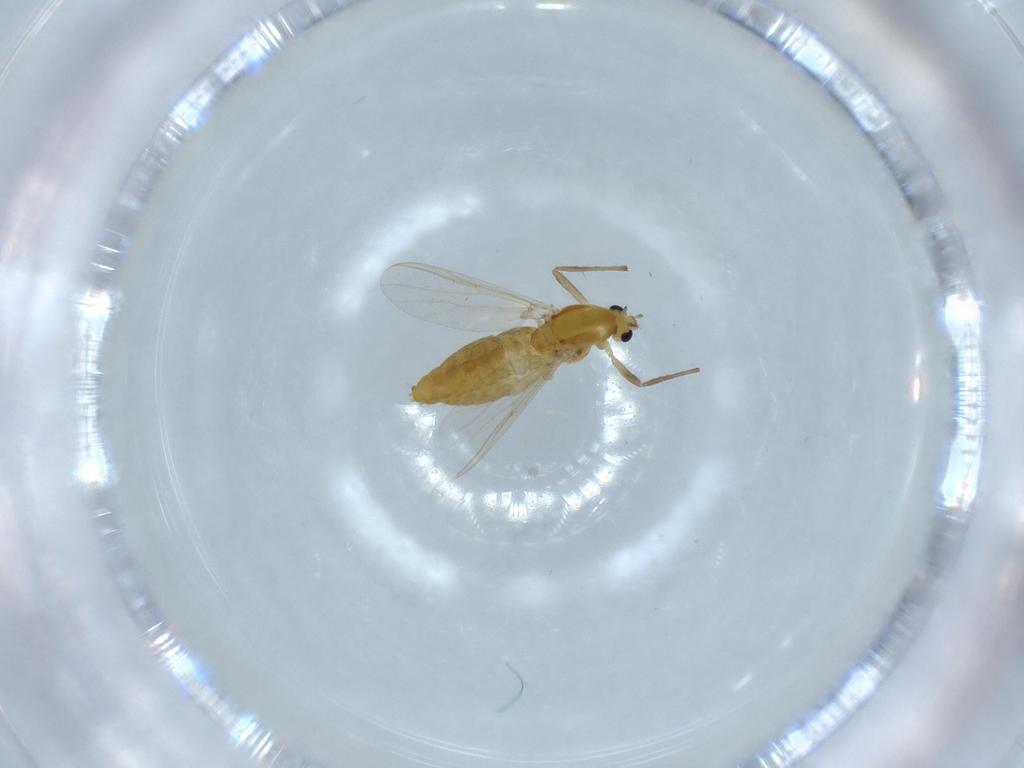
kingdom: Animalia
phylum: Arthropoda
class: Insecta
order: Diptera
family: Chironomidae
